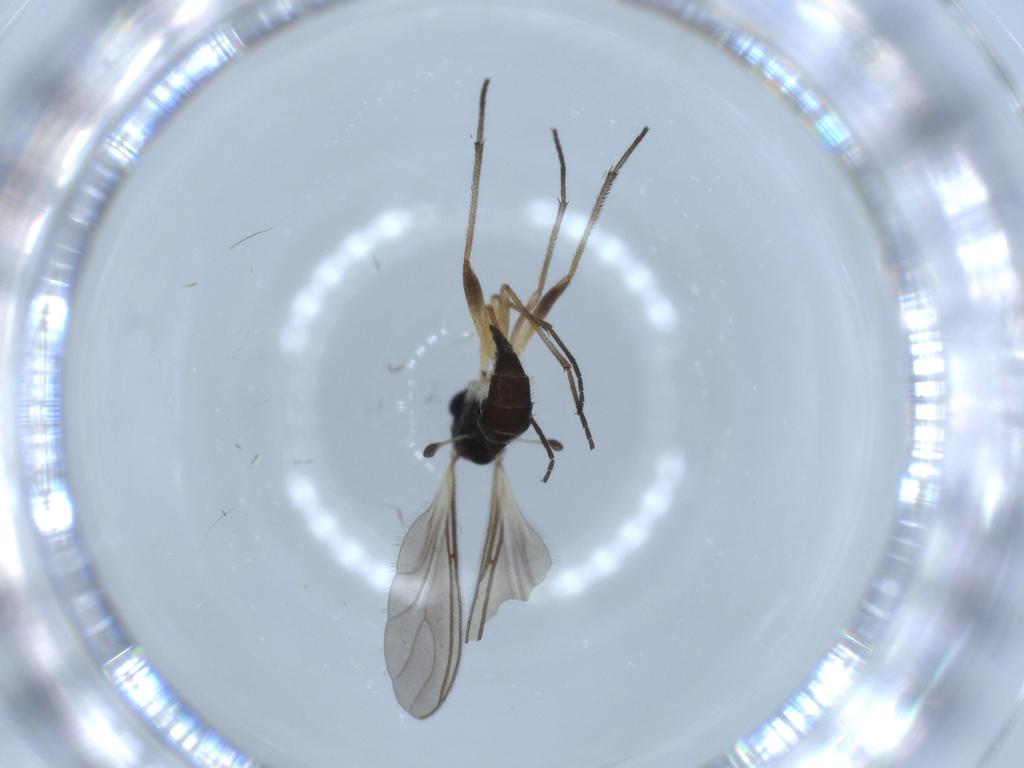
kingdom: Animalia
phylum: Arthropoda
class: Insecta
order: Diptera
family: Sciaridae
